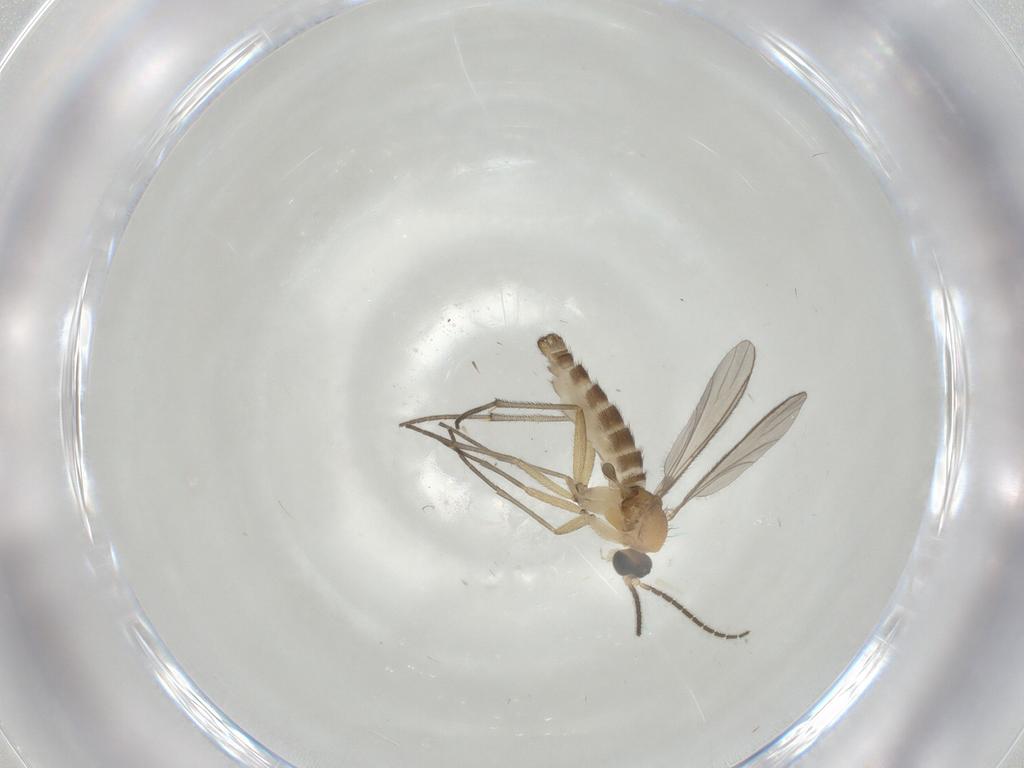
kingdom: Animalia
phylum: Arthropoda
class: Insecta
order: Diptera
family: Sciaridae
